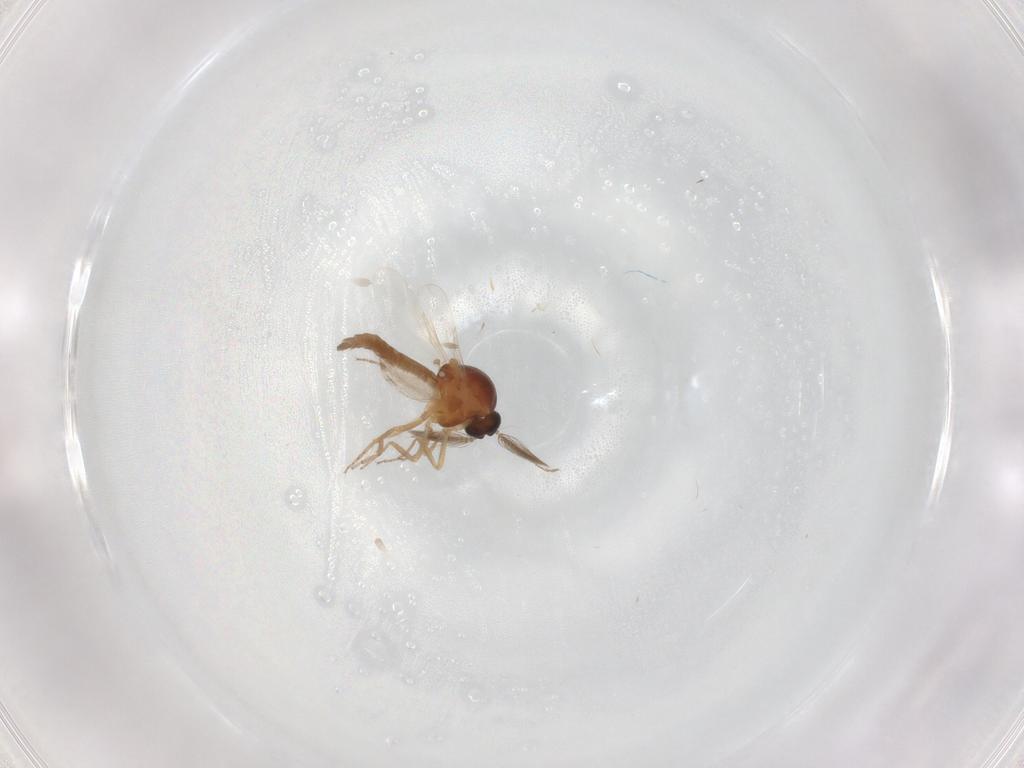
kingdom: Animalia
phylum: Arthropoda
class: Insecta
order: Diptera
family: Ceratopogonidae
